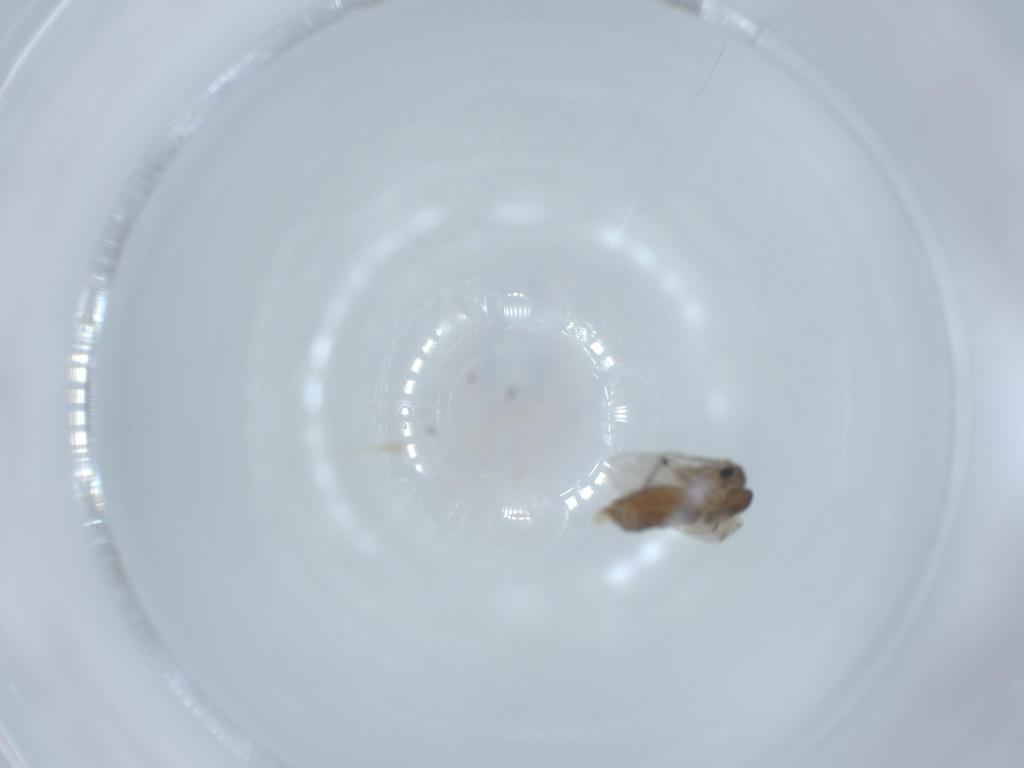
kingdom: Animalia
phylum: Arthropoda
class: Insecta
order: Diptera
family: Psychodidae
